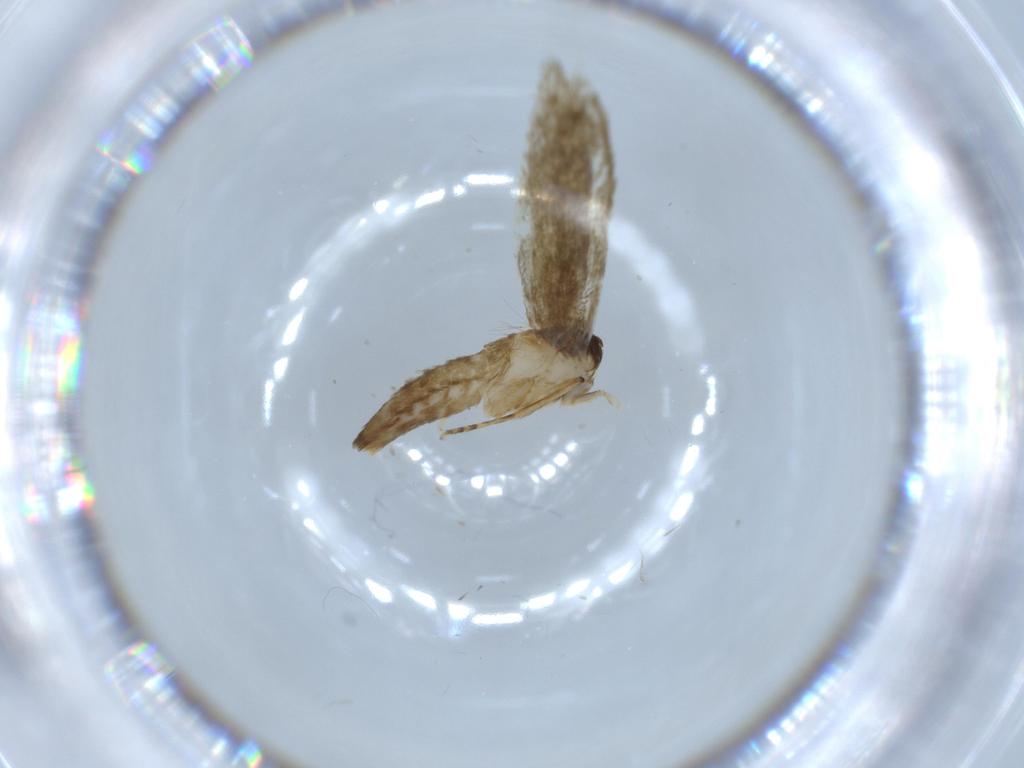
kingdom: Animalia
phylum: Arthropoda
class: Insecta
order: Lepidoptera
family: Tineidae
